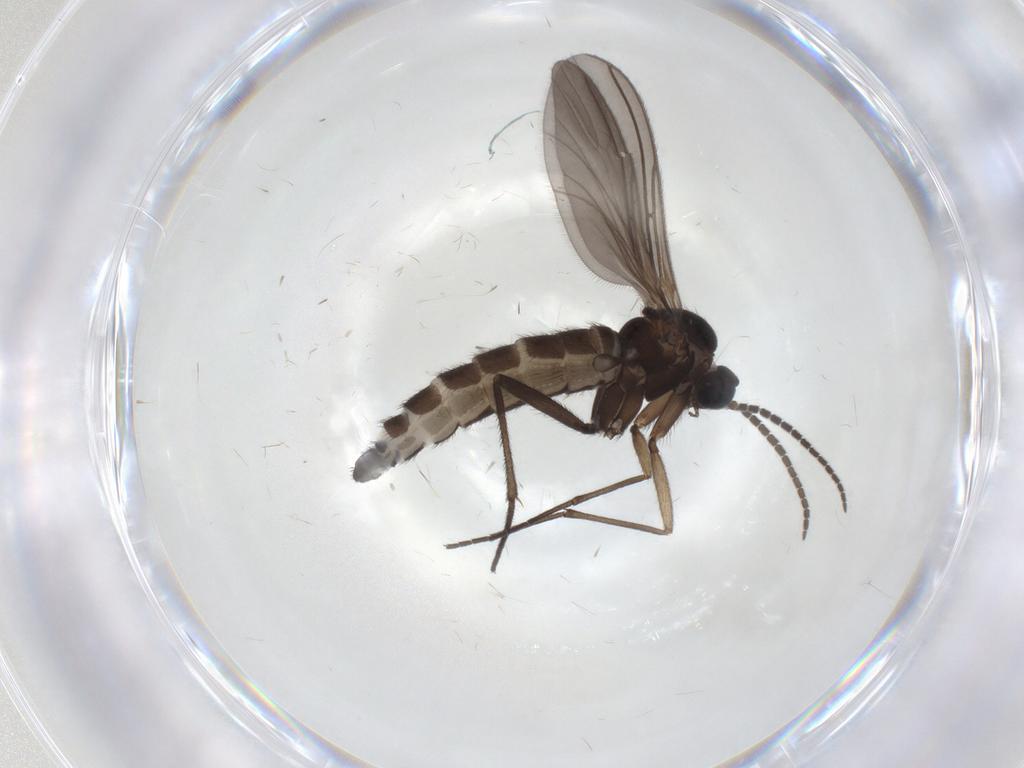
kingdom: Animalia
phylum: Arthropoda
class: Insecta
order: Diptera
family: Sciaridae
